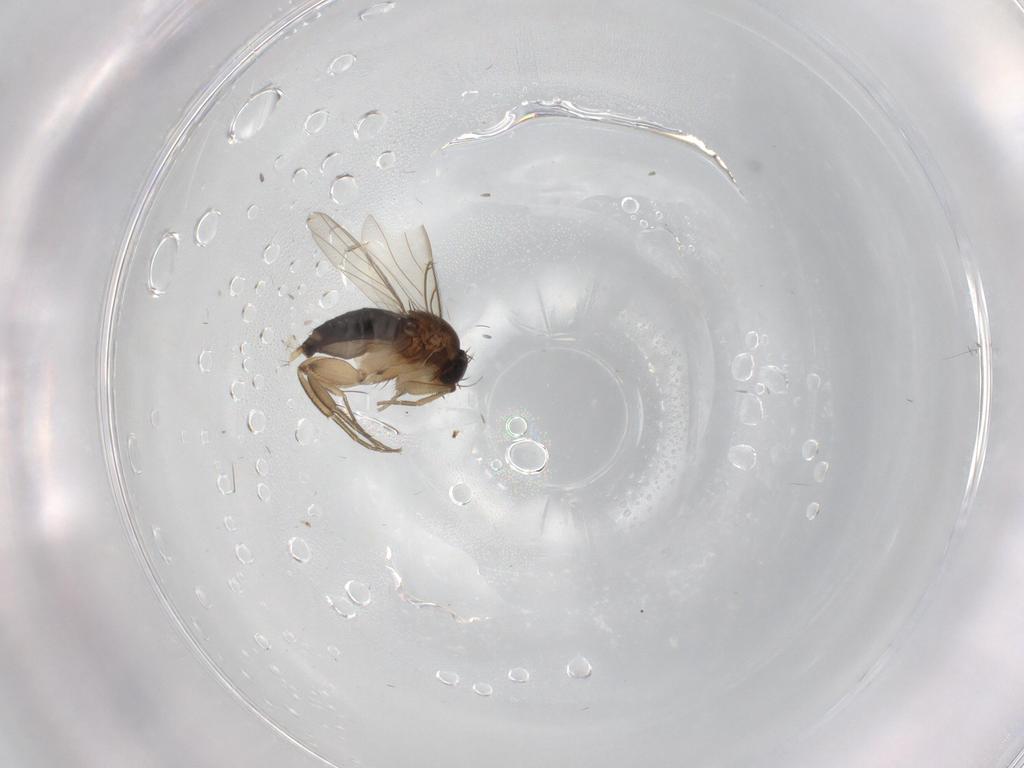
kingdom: Animalia
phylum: Arthropoda
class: Insecta
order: Diptera
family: Phoridae
